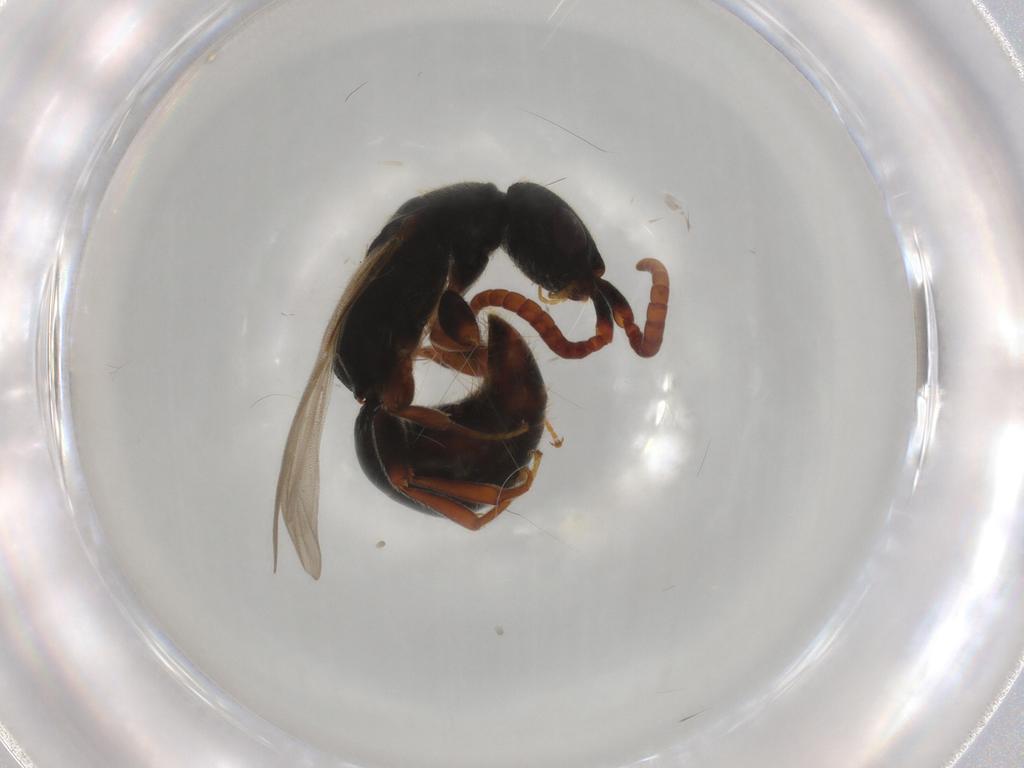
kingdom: Animalia
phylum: Arthropoda
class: Insecta
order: Hymenoptera
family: Bethylidae
